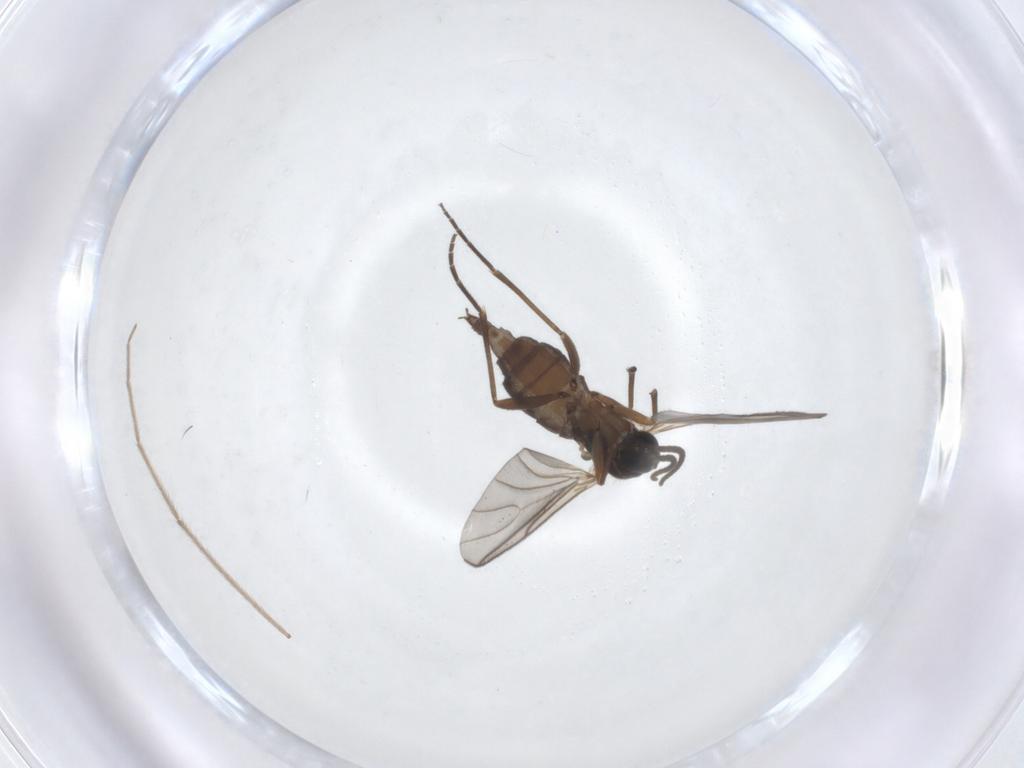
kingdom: Animalia
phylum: Arthropoda
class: Insecta
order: Diptera
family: Sciaridae
